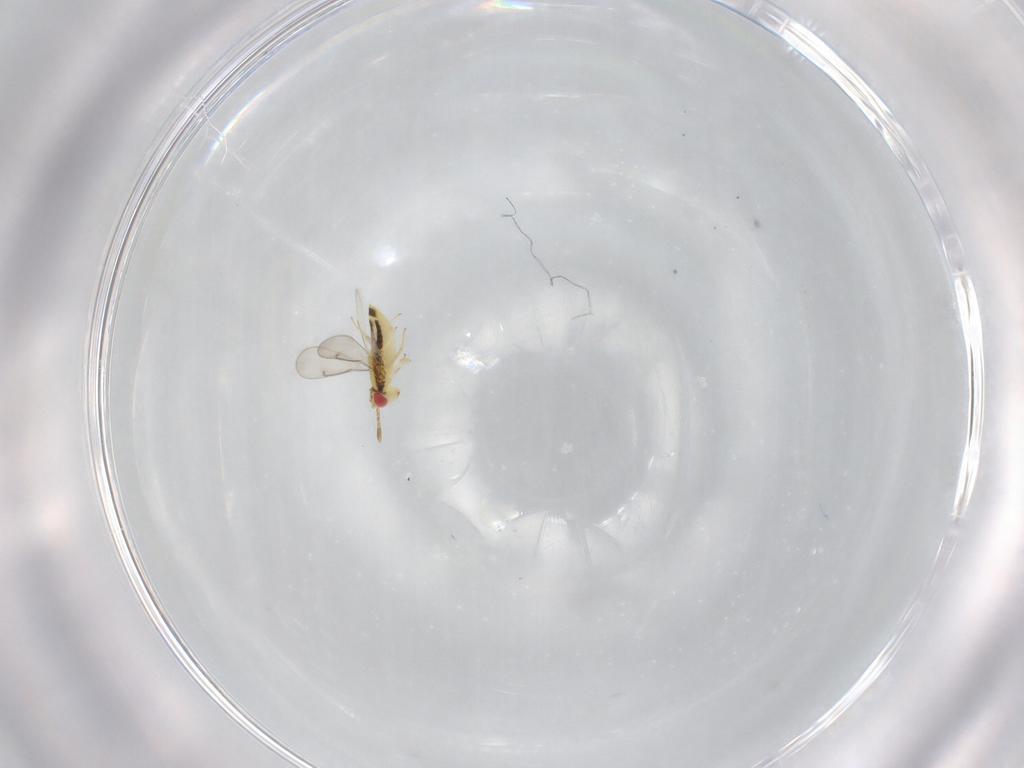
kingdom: Animalia
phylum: Arthropoda
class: Insecta
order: Hymenoptera
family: Aphelinidae
